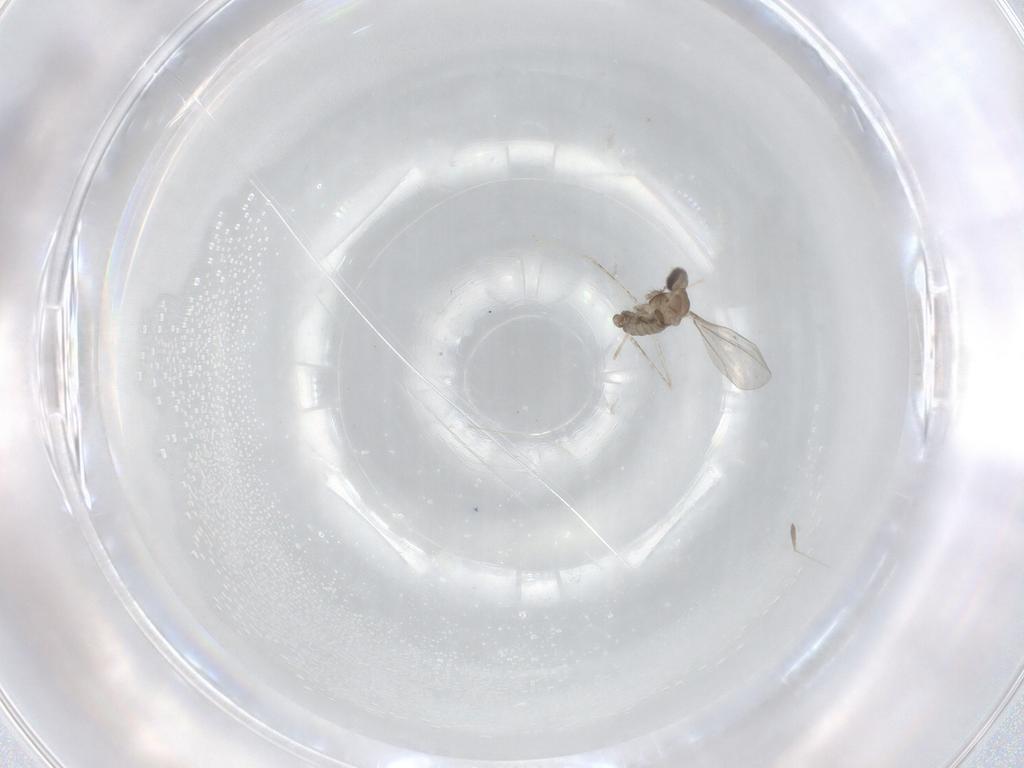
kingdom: Animalia
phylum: Arthropoda
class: Insecta
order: Diptera
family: Cecidomyiidae
